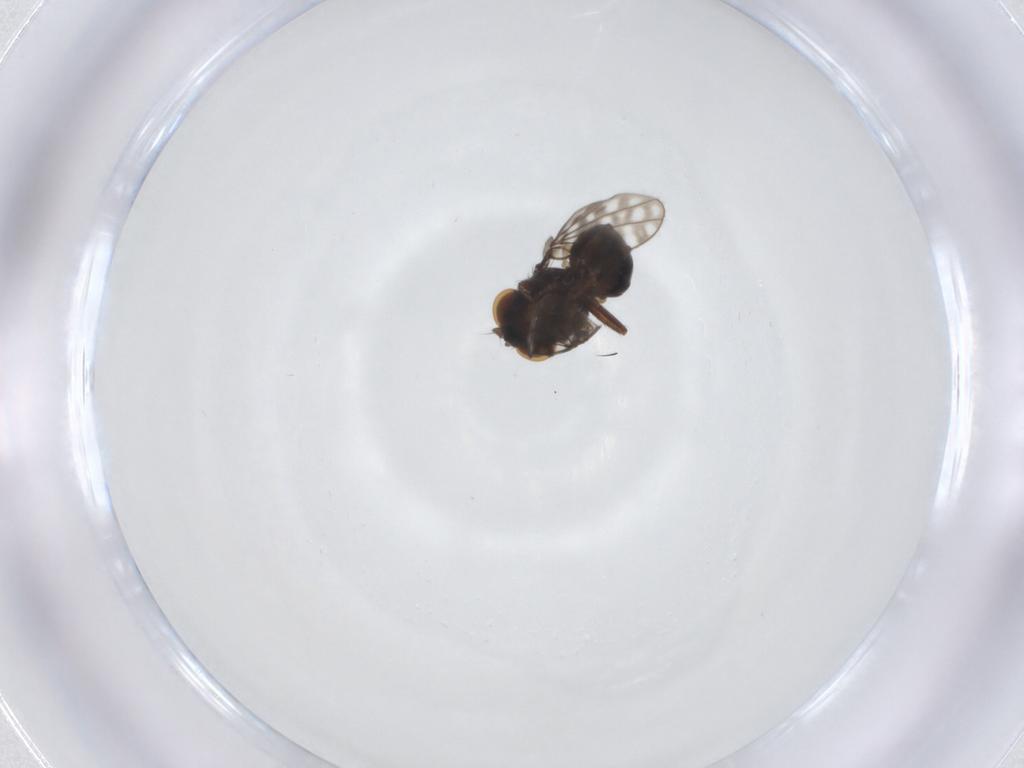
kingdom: Animalia
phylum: Arthropoda
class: Insecta
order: Diptera
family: Ephydridae
